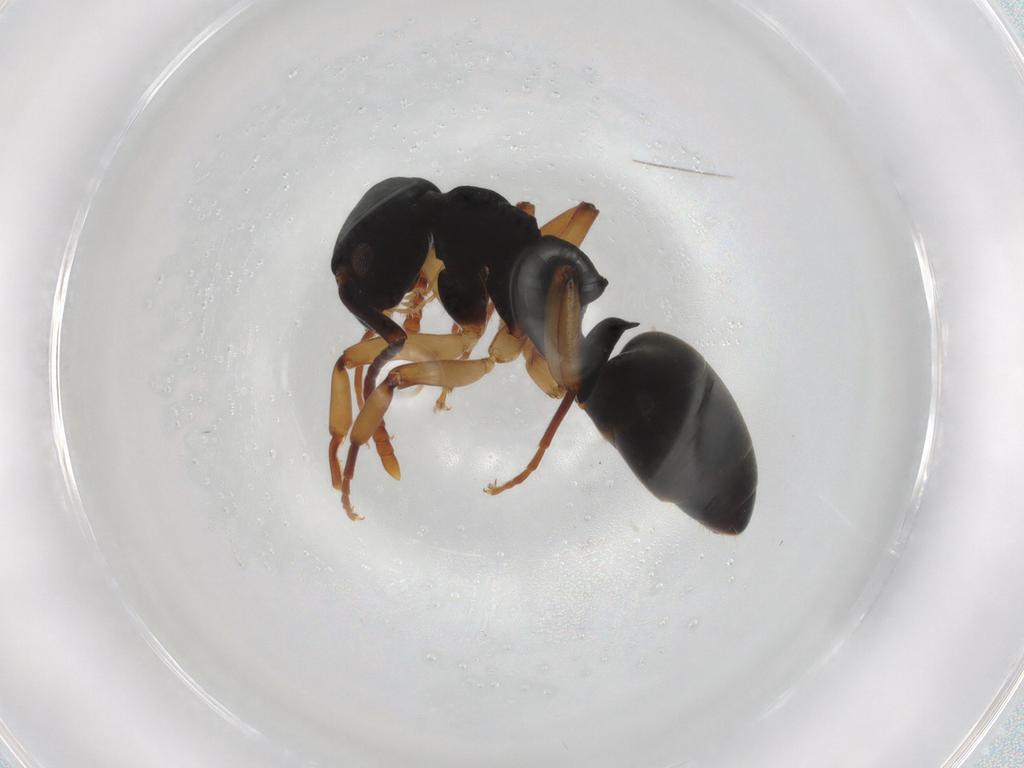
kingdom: Animalia
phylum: Arthropoda
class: Insecta
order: Hymenoptera
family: Formicidae
